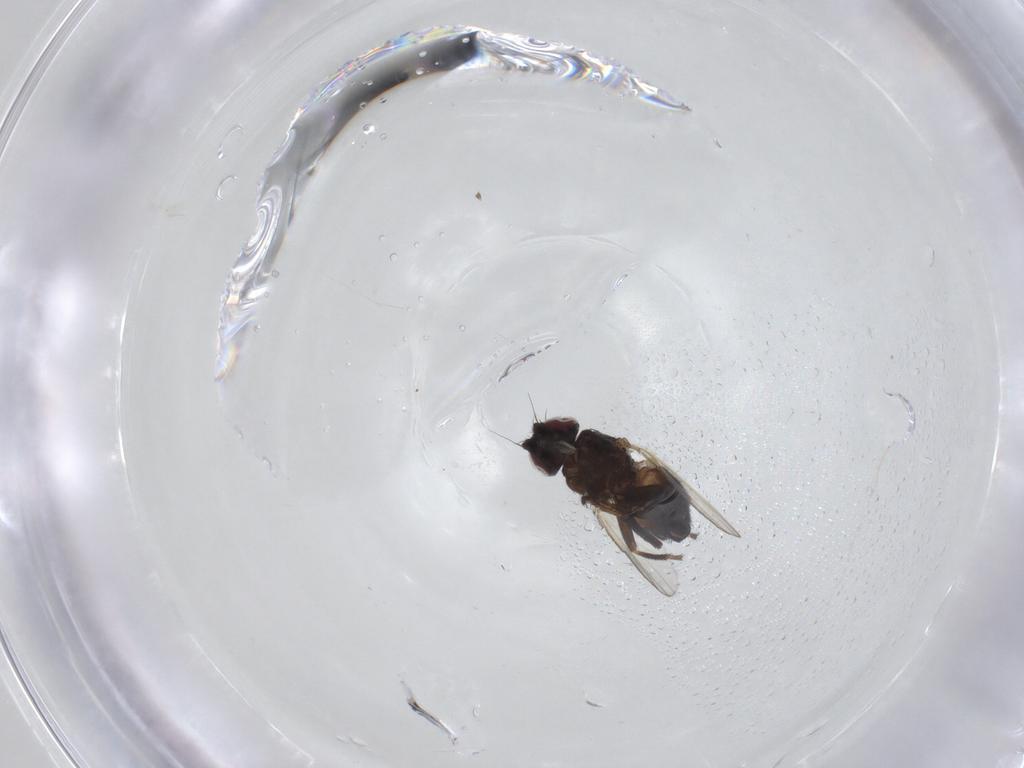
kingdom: Animalia
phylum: Arthropoda
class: Insecta
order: Diptera
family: Milichiidae
